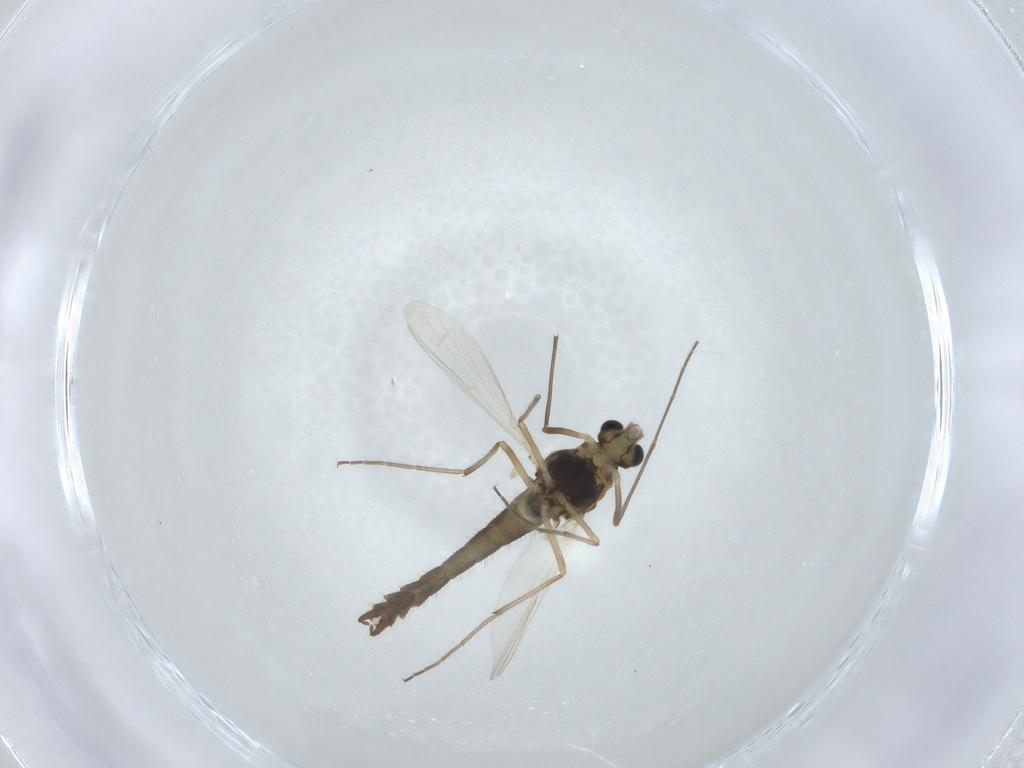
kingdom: Animalia
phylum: Arthropoda
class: Insecta
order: Diptera
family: Chironomidae
